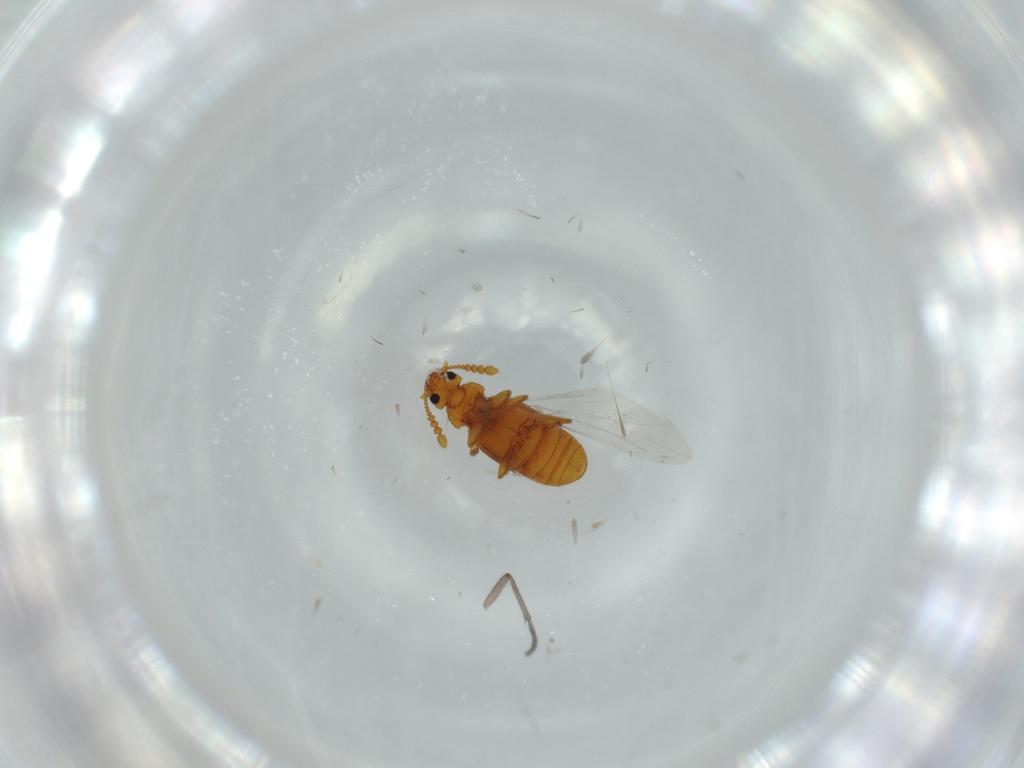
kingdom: Animalia
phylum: Arthropoda
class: Insecta
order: Coleoptera
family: Staphylinidae
